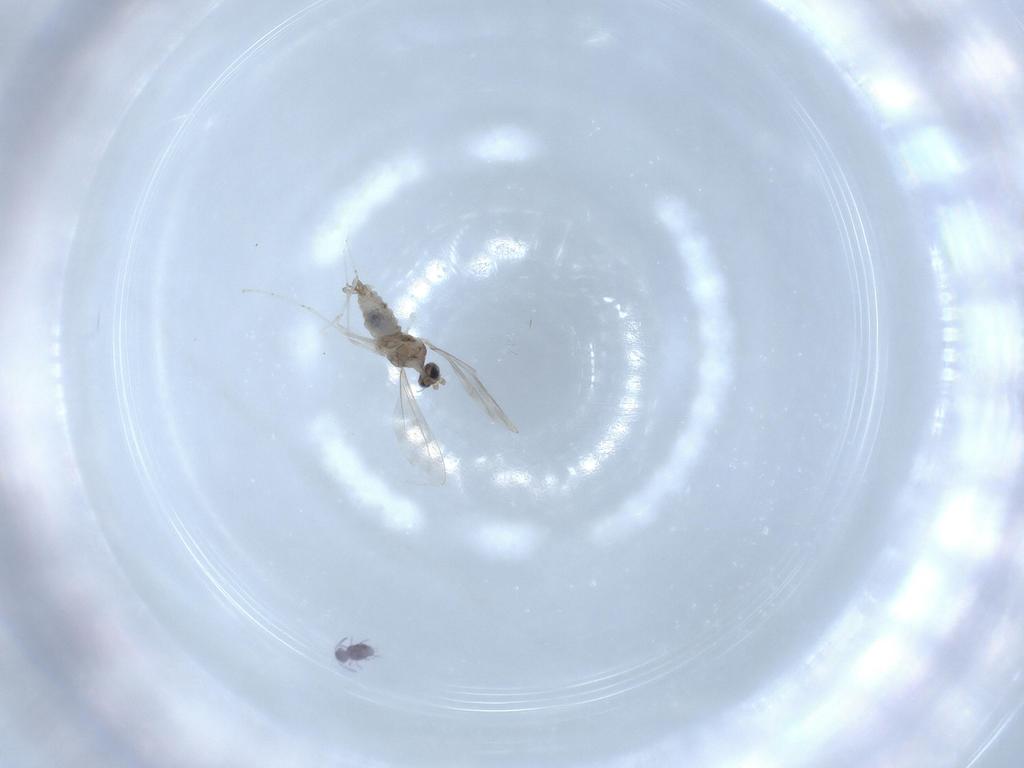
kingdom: Animalia
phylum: Arthropoda
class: Insecta
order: Diptera
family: Cecidomyiidae
